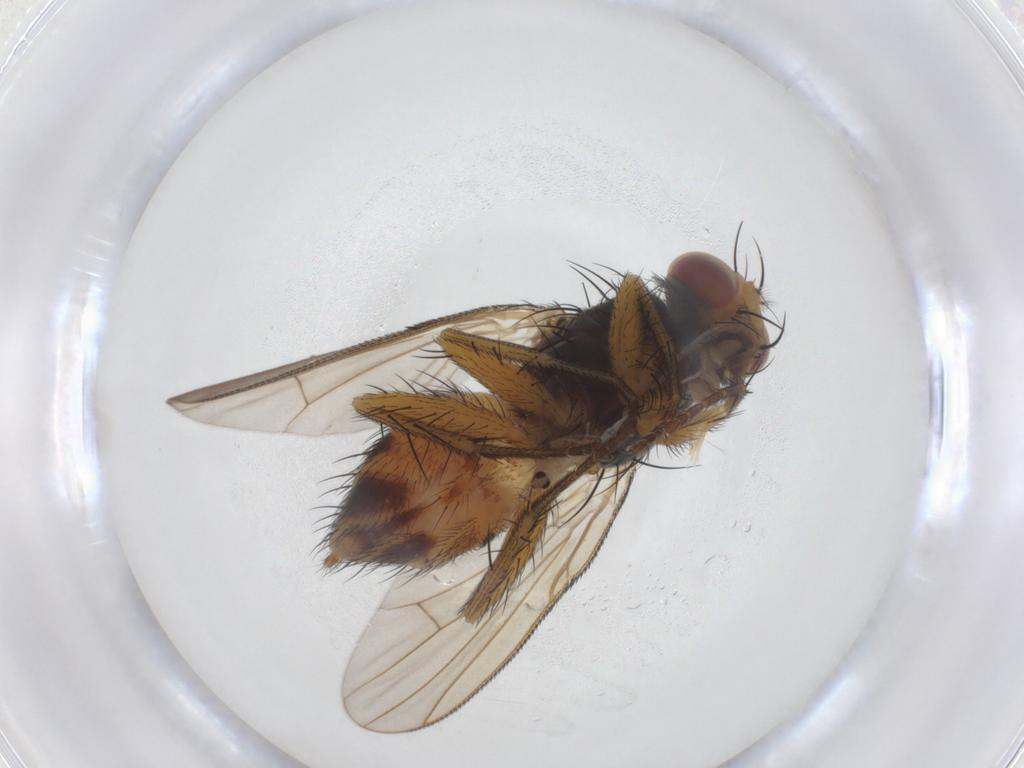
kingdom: Animalia
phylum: Arthropoda
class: Insecta
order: Diptera
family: Muscidae
